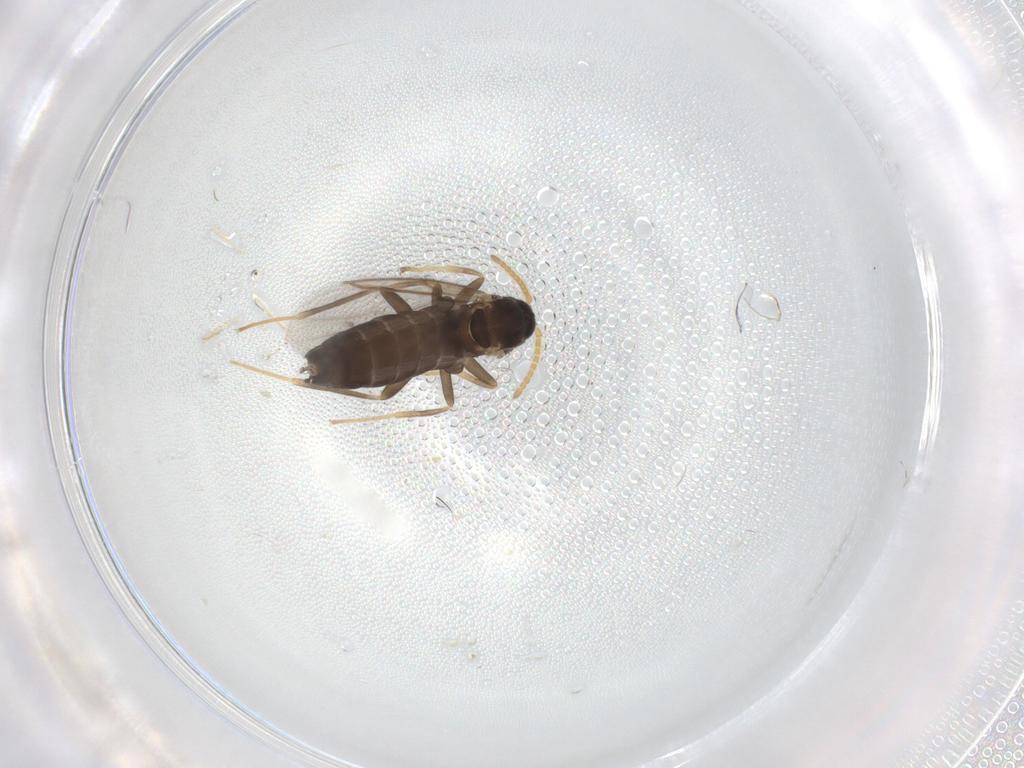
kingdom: Animalia
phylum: Arthropoda
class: Insecta
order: Diptera
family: Scatopsidae
